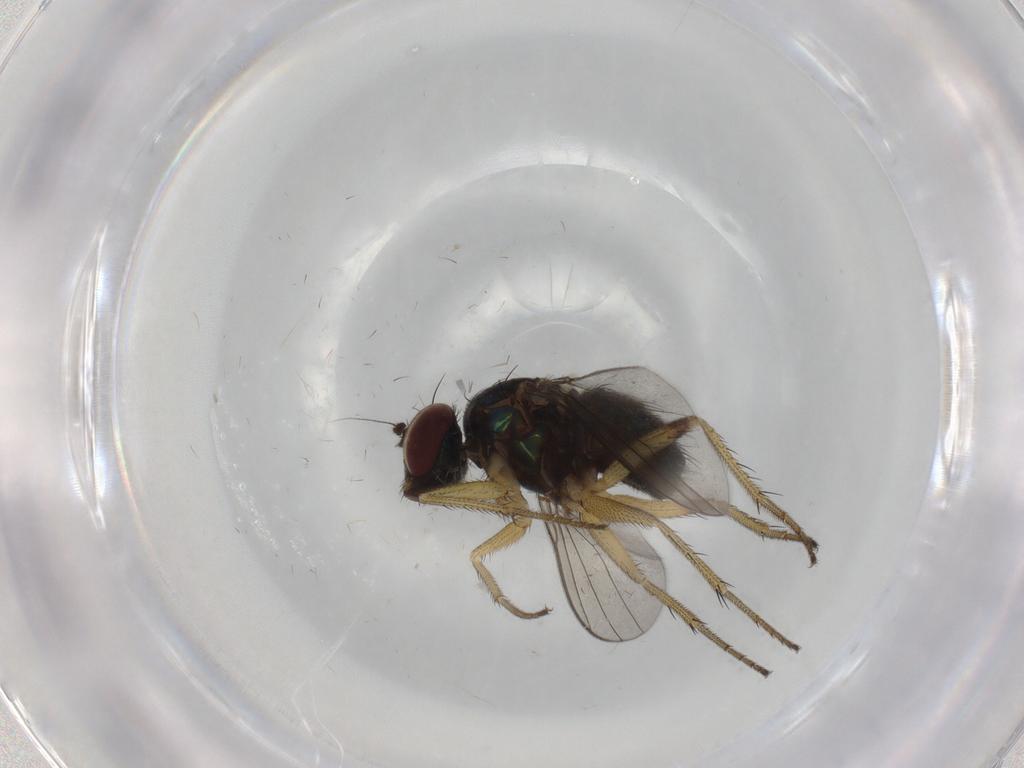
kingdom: Animalia
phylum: Arthropoda
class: Insecta
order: Diptera
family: Dolichopodidae
